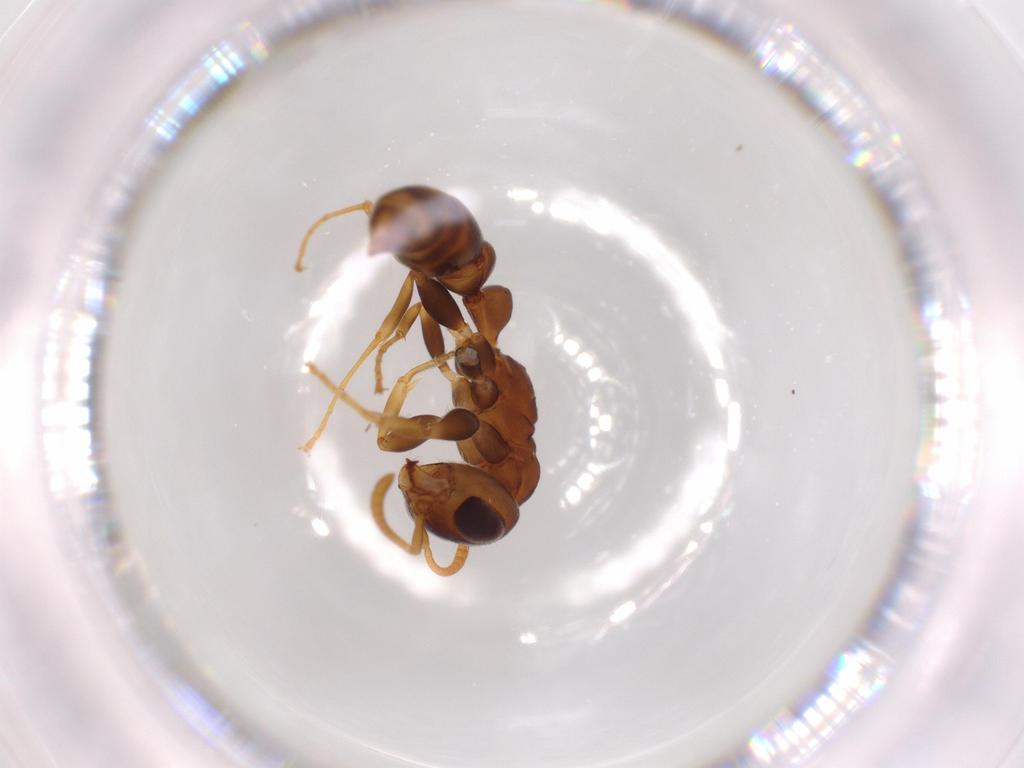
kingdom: Animalia
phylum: Arthropoda
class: Insecta
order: Hymenoptera
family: Formicidae
